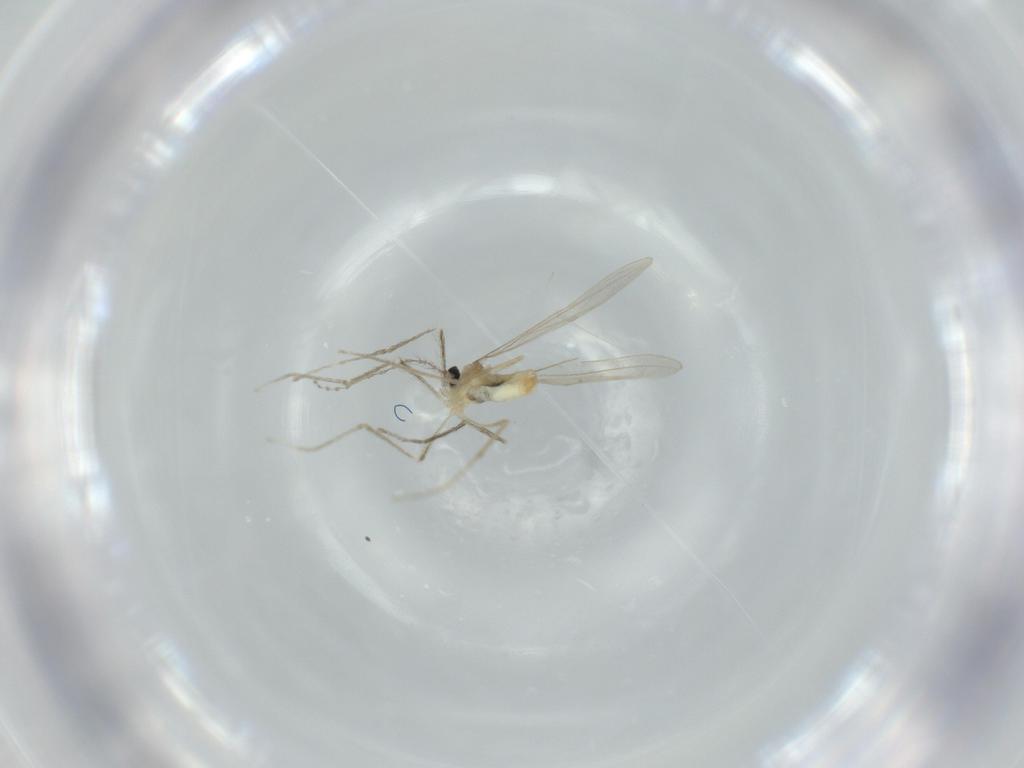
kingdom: Animalia
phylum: Arthropoda
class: Insecta
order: Diptera
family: Cecidomyiidae
